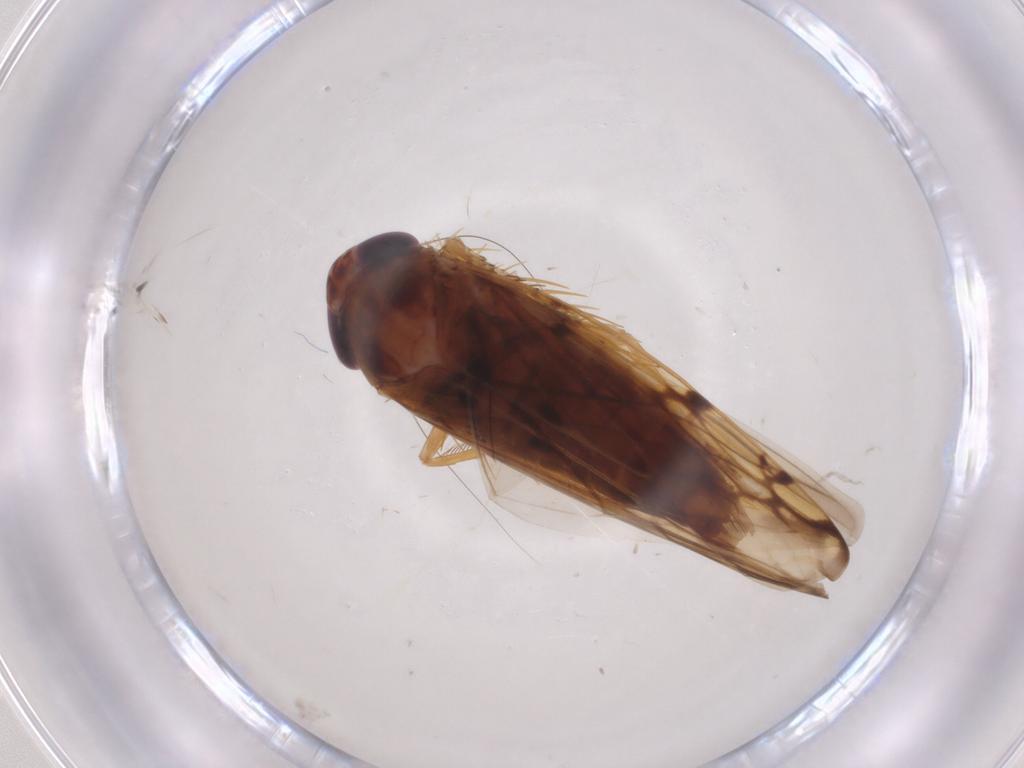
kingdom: Animalia
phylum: Arthropoda
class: Insecta
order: Hemiptera
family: Cicadellidae
